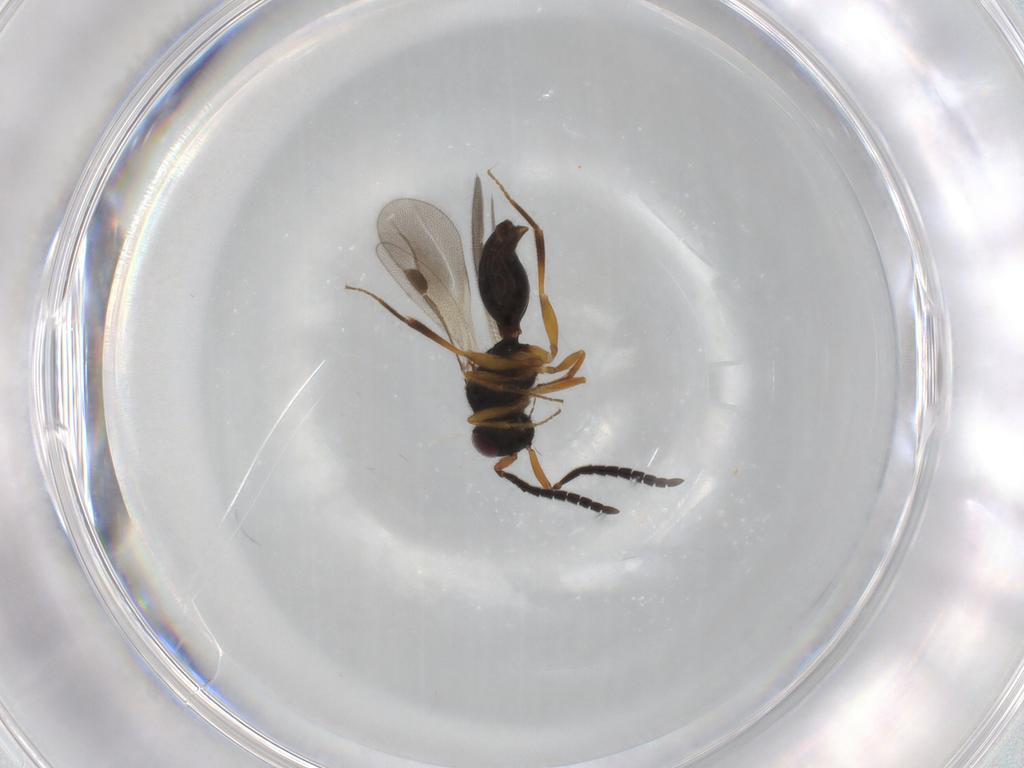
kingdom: Animalia
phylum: Arthropoda
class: Insecta
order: Hymenoptera
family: Megaspilidae
